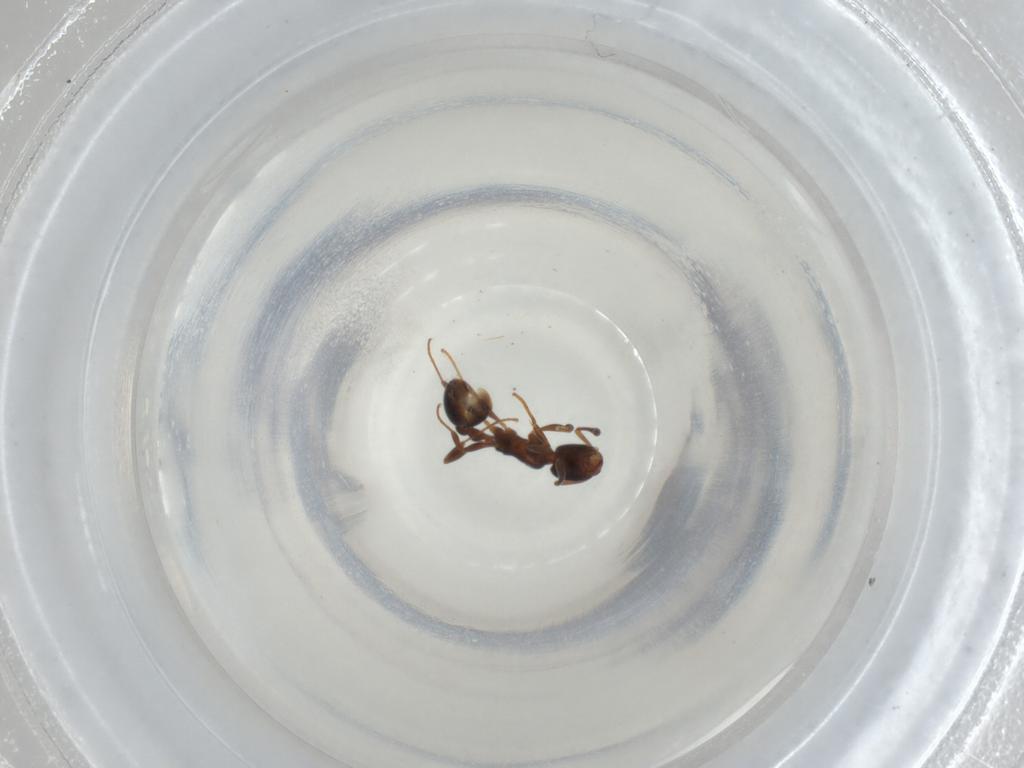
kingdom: Animalia
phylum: Arthropoda
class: Insecta
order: Hymenoptera
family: Formicidae
